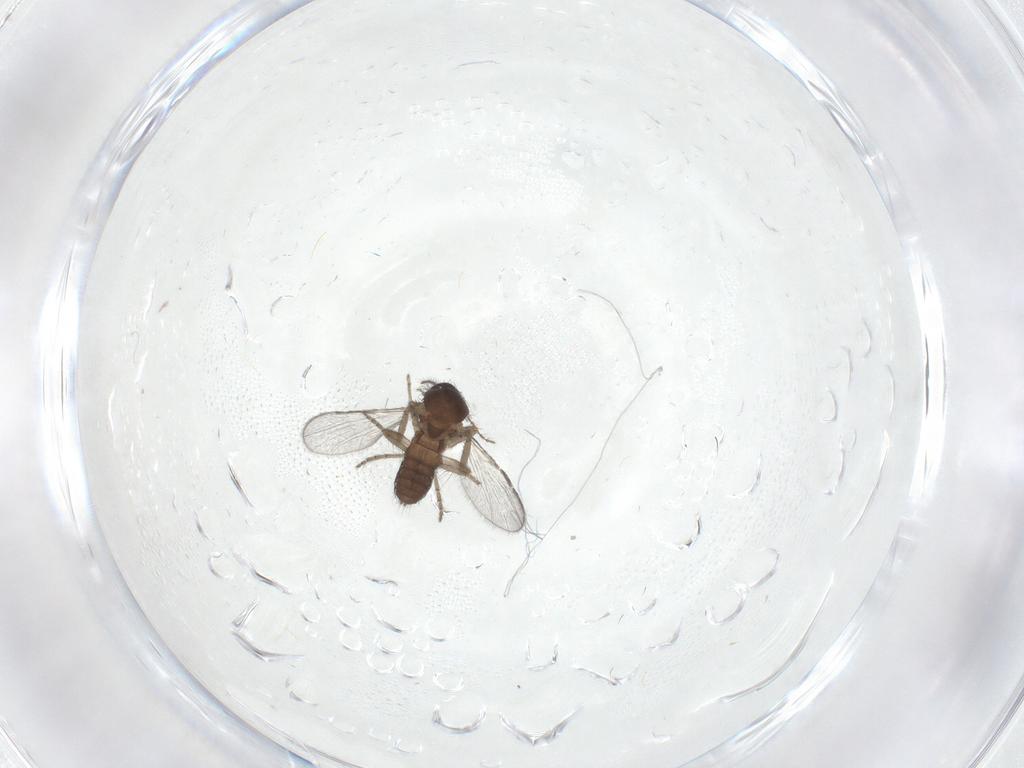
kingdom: Animalia
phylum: Arthropoda
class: Insecta
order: Diptera
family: Ceratopogonidae
